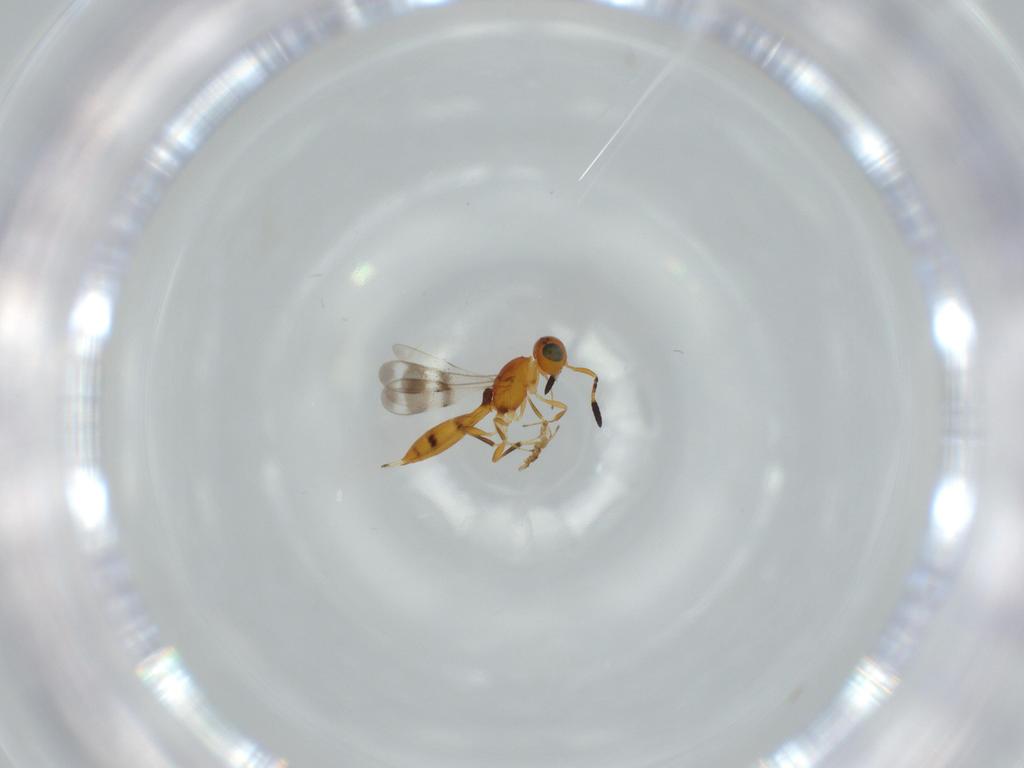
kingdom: Animalia
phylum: Arthropoda
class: Insecta
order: Hymenoptera
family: Scelionidae
